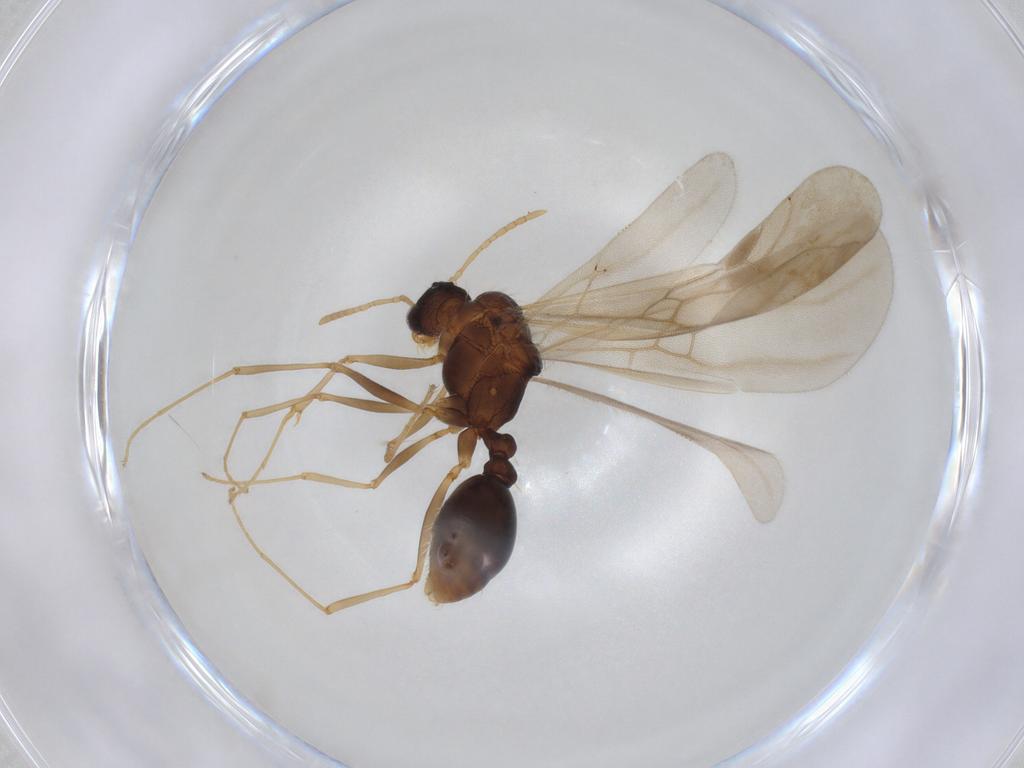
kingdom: Animalia
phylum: Arthropoda
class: Insecta
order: Hymenoptera
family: Formicidae
